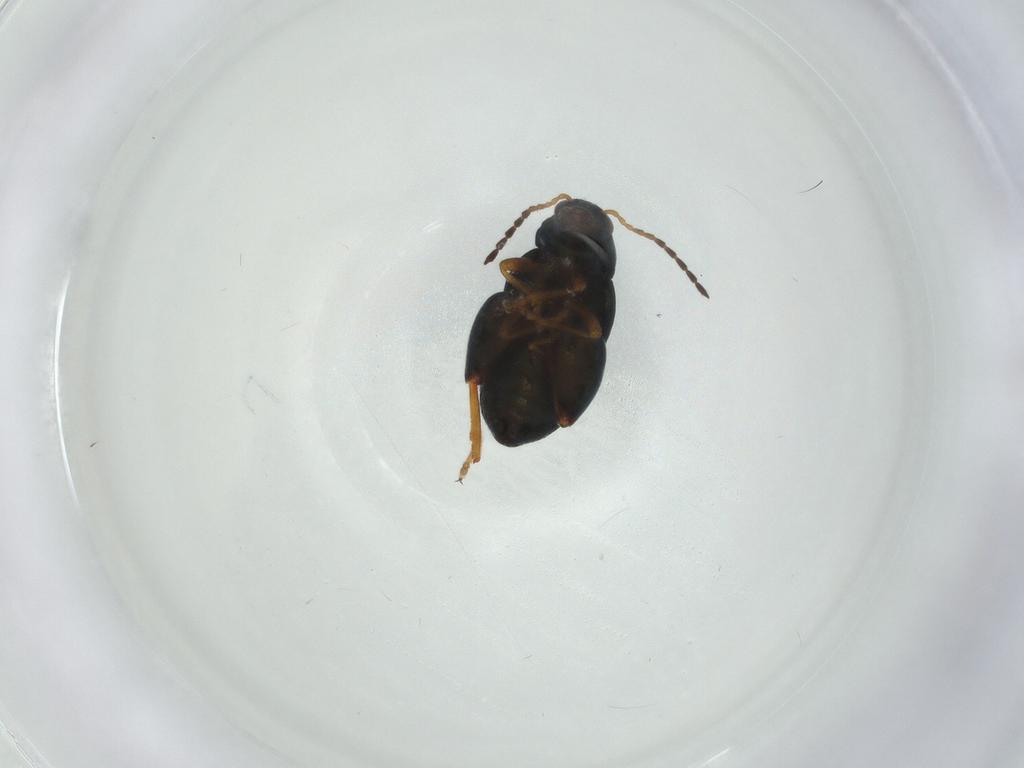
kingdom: Animalia
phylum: Arthropoda
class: Insecta
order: Coleoptera
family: Chrysomelidae
